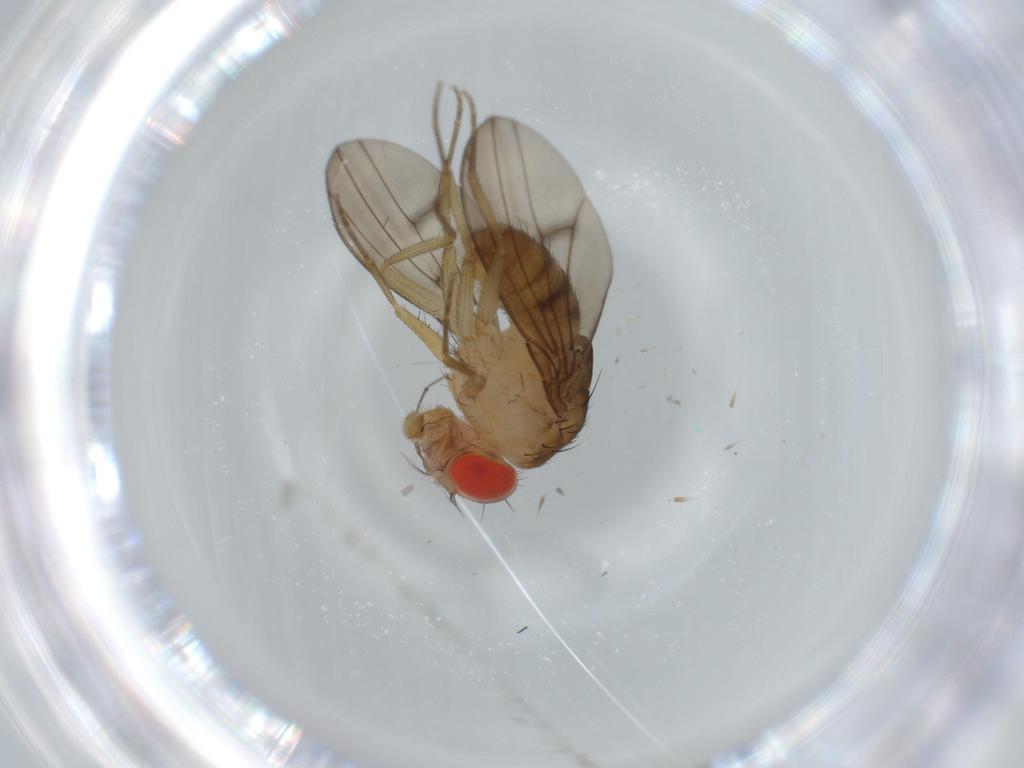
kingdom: Animalia
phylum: Arthropoda
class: Insecta
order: Diptera
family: Drosophilidae
